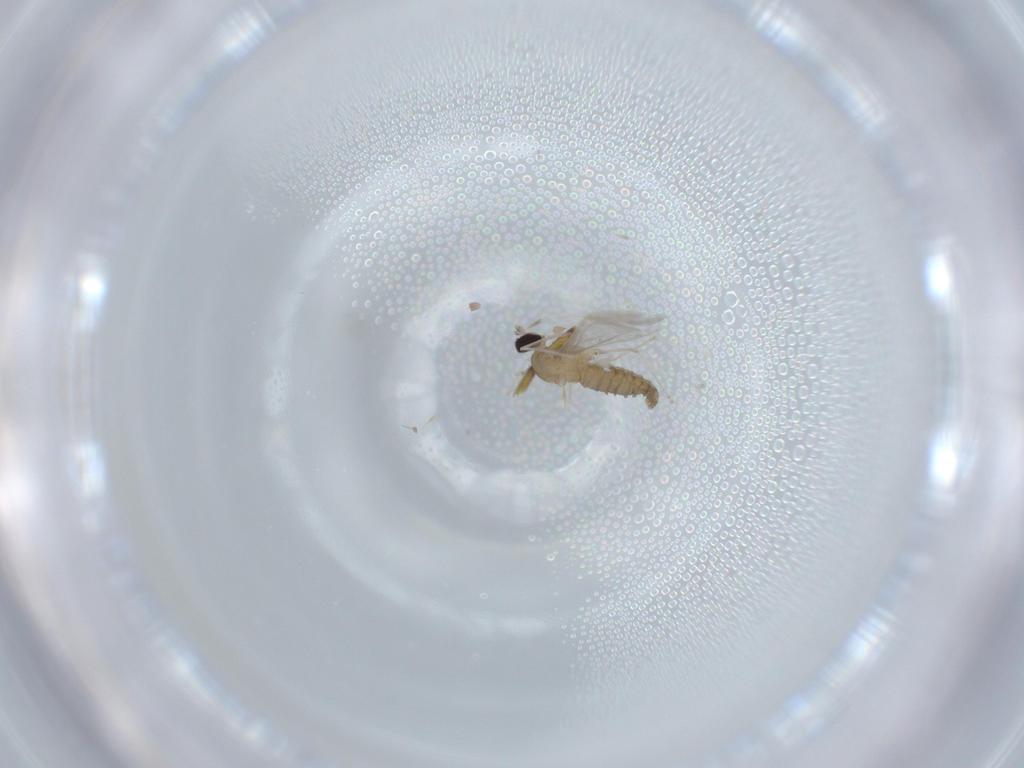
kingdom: Animalia
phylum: Arthropoda
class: Insecta
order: Diptera
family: Cecidomyiidae
